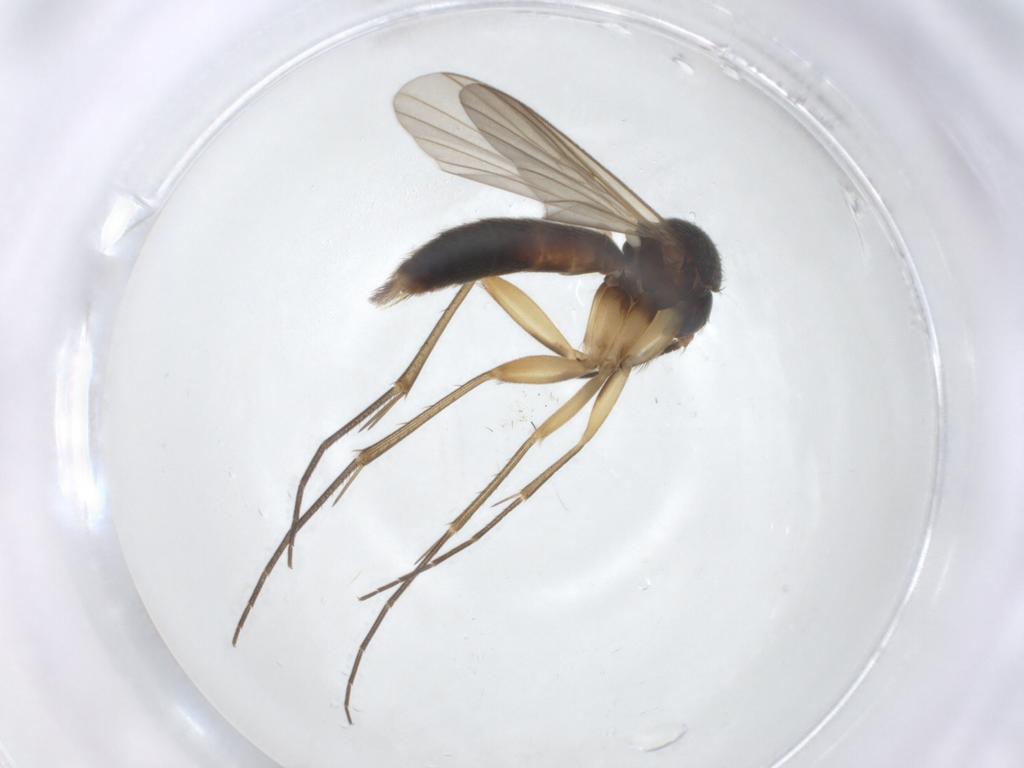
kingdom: Animalia
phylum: Arthropoda
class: Insecta
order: Diptera
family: Mycetophilidae
